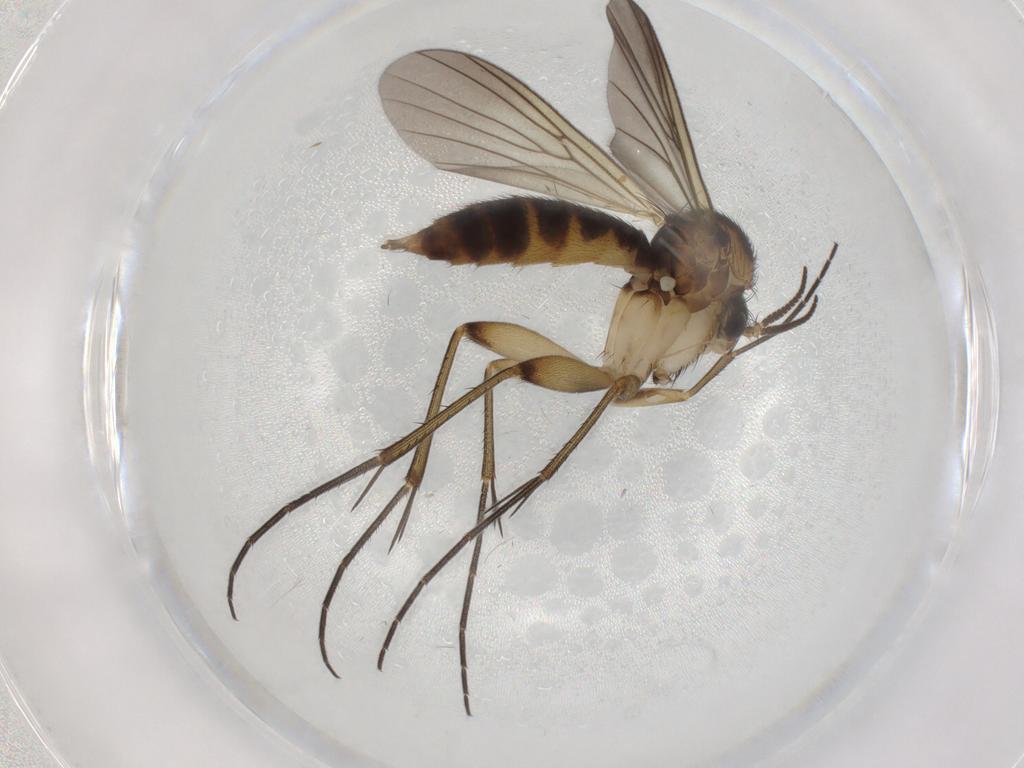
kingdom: Animalia
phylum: Arthropoda
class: Insecta
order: Diptera
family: Mycetophilidae
